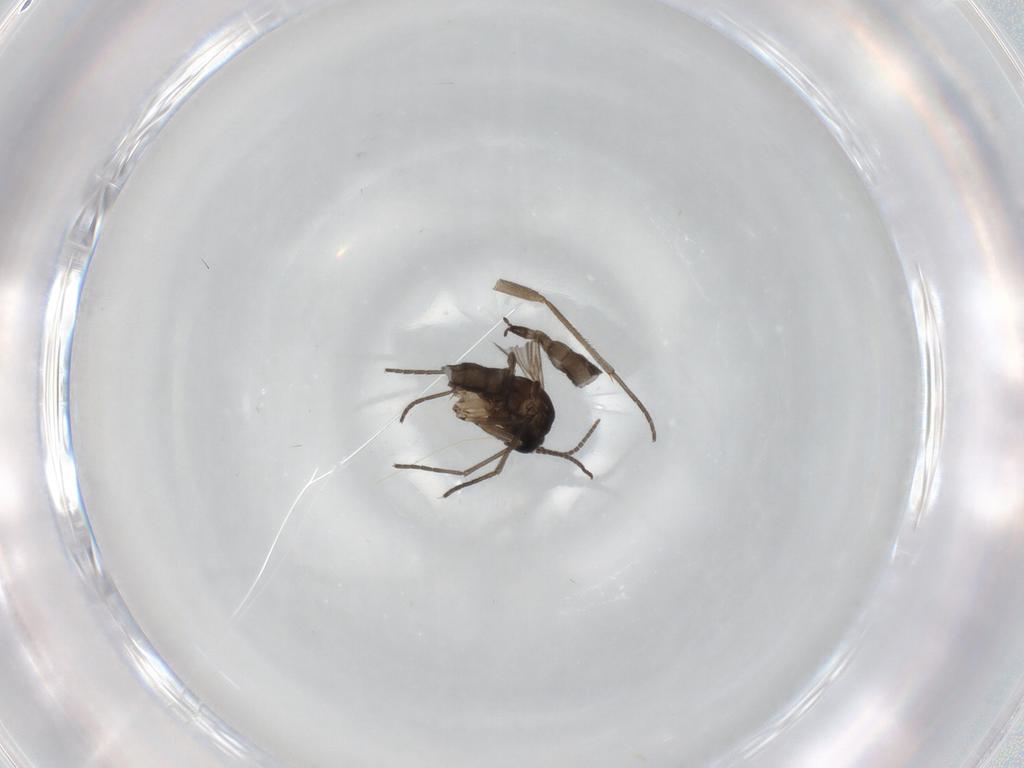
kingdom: Animalia
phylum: Arthropoda
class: Insecta
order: Diptera
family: Sciaridae
